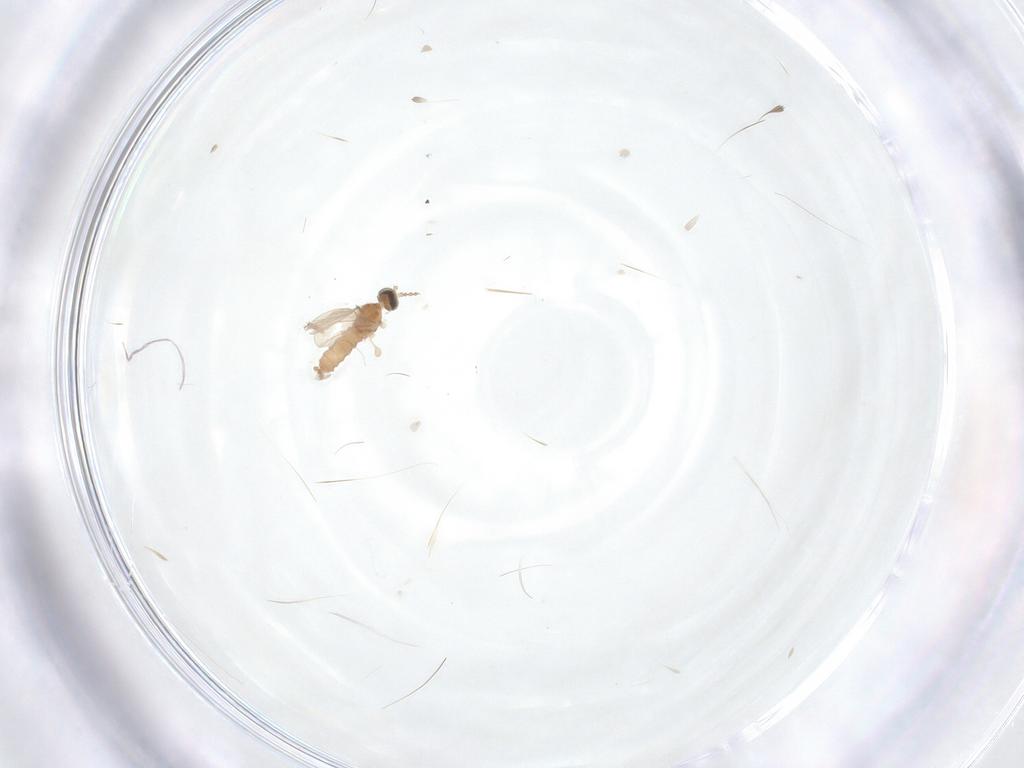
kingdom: Animalia
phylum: Arthropoda
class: Insecta
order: Diptera
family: Cecidomyiidae
